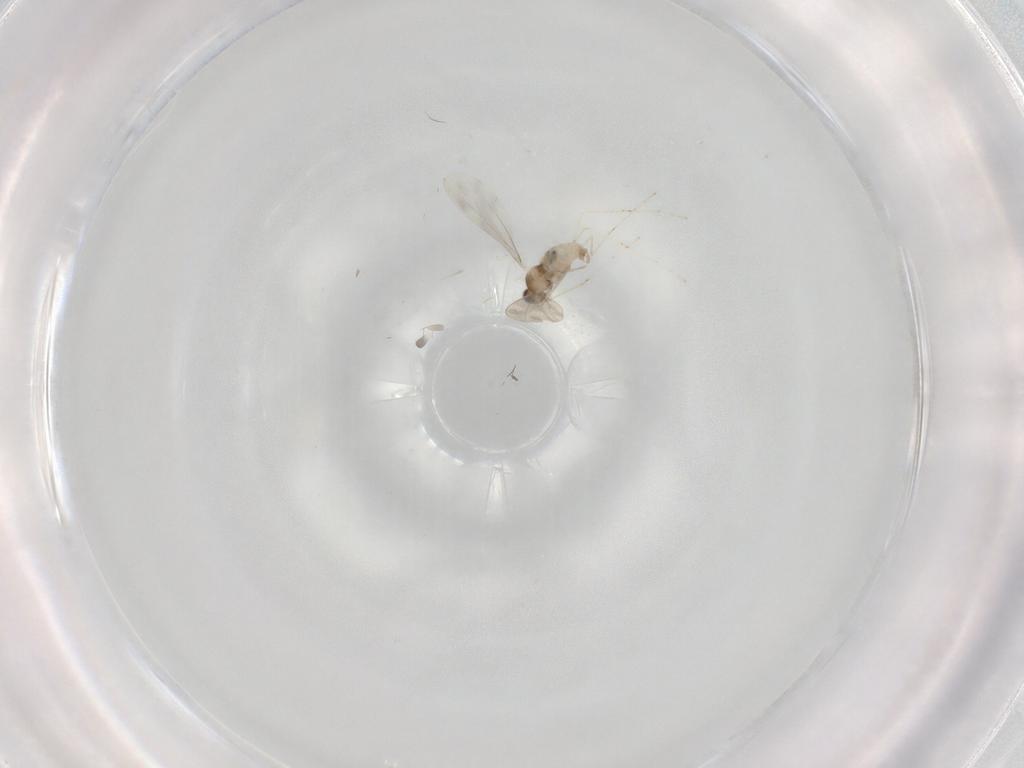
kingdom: Animalia
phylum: Arthropoda
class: Insecta
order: Diptera
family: Cecidomyiidae
